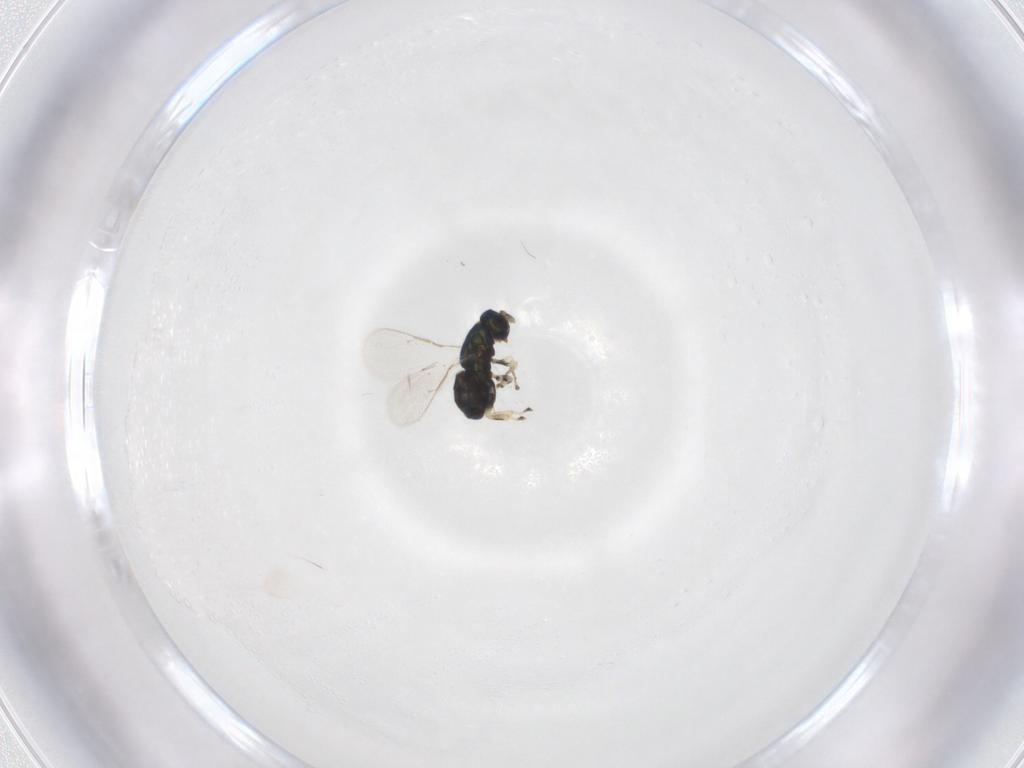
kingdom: Animalia
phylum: Arthropoda
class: Insecta
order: Hymenoptera
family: Eulophidae
